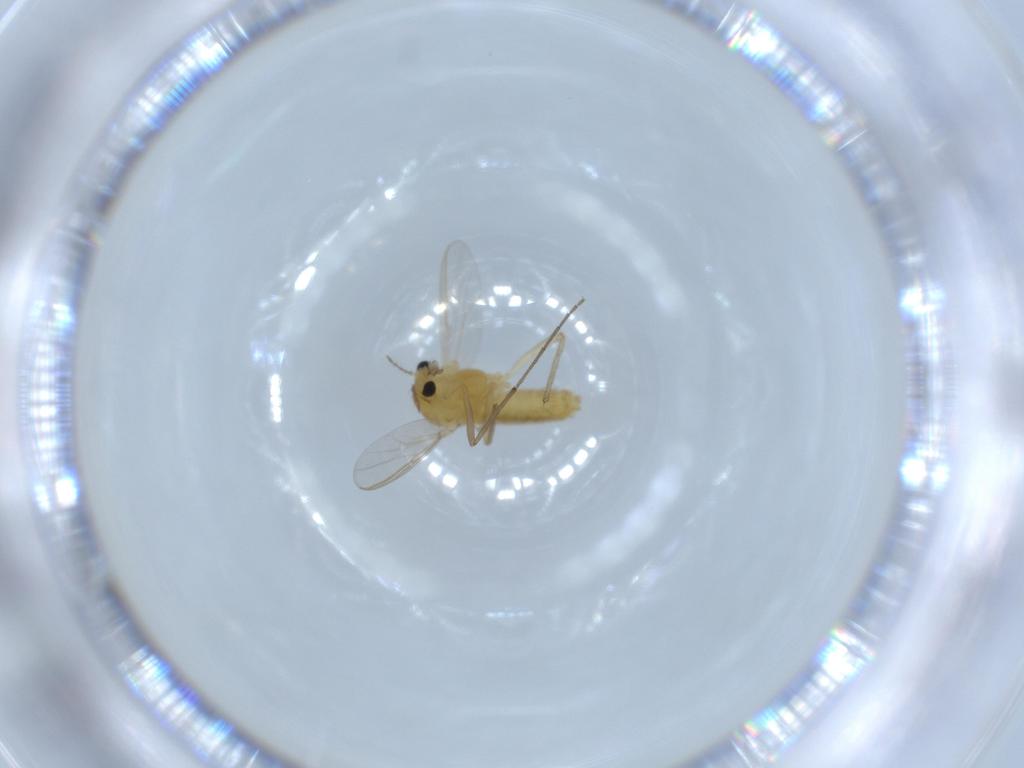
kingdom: Animalia
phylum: Arthropoda
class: Insecta
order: Diptera
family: Chironomidae
